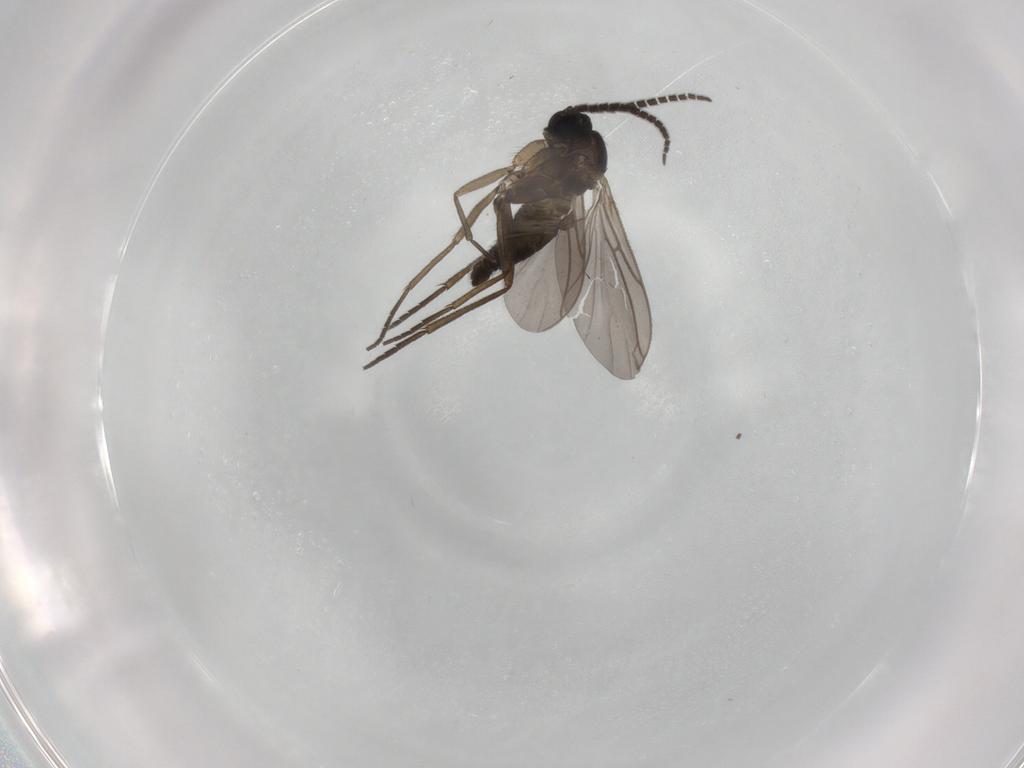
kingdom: Animalia
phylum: Arthropoda
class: Insecta
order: Diptera
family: Sciaridae
